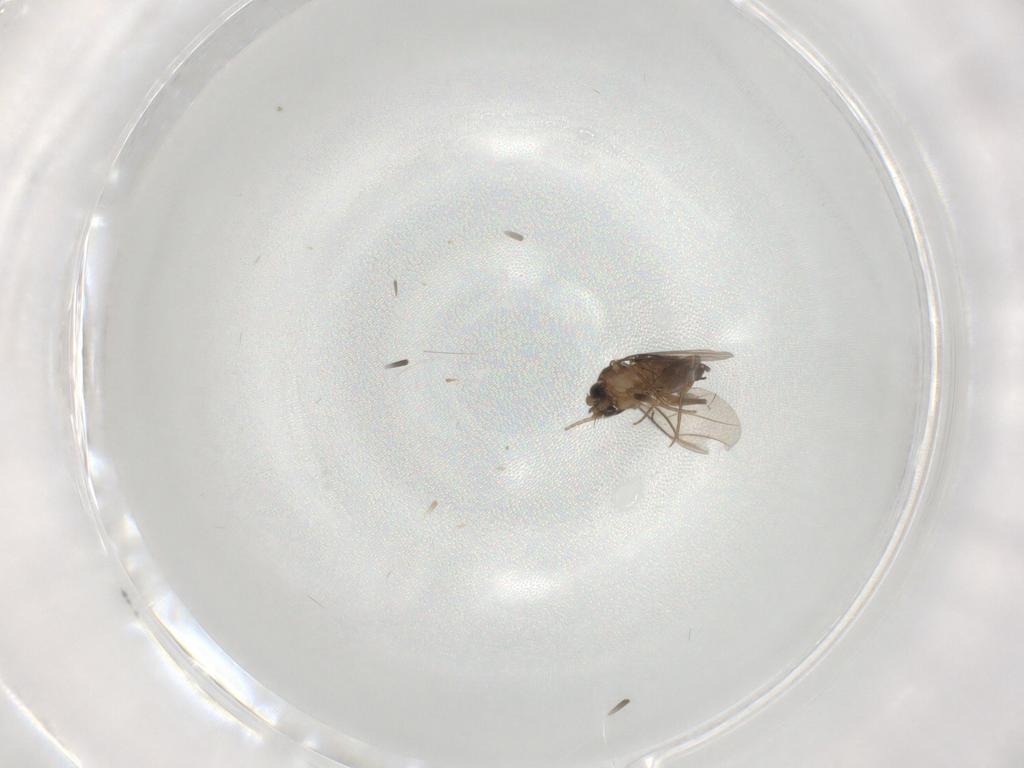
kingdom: Animalia
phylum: Arthropoda
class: Insecta
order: Diptera
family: Phoridae
